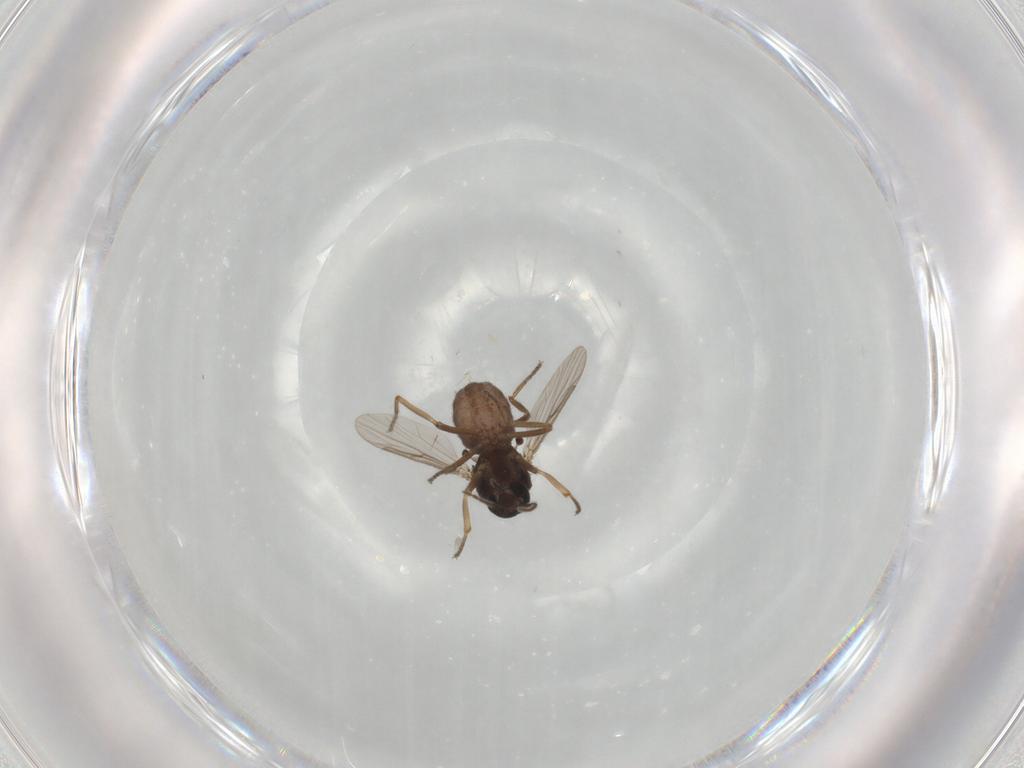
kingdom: Animalia
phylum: Arthropoda
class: Insecta
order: Diptera
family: Ceratopogonidae
